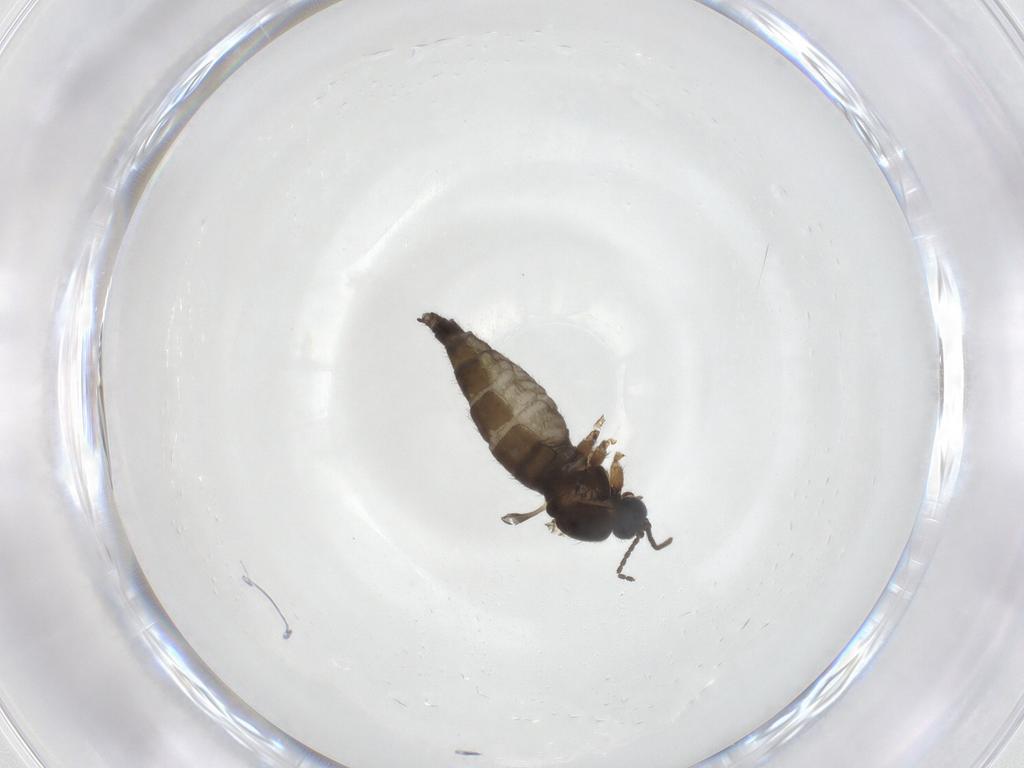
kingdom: Animalia
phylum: Arthropoda
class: Insecta
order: Diptera
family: Sciaridae
